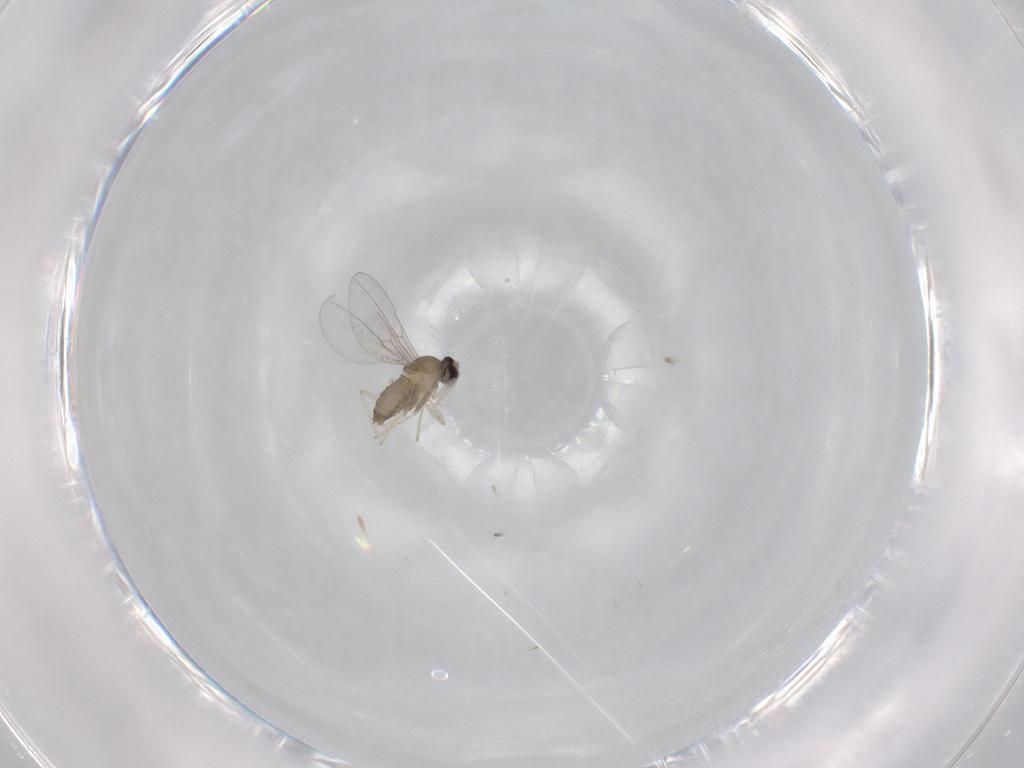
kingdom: Animalia
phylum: Arthropoda
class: Insecta
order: Diptera
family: Cecidomyiidae
